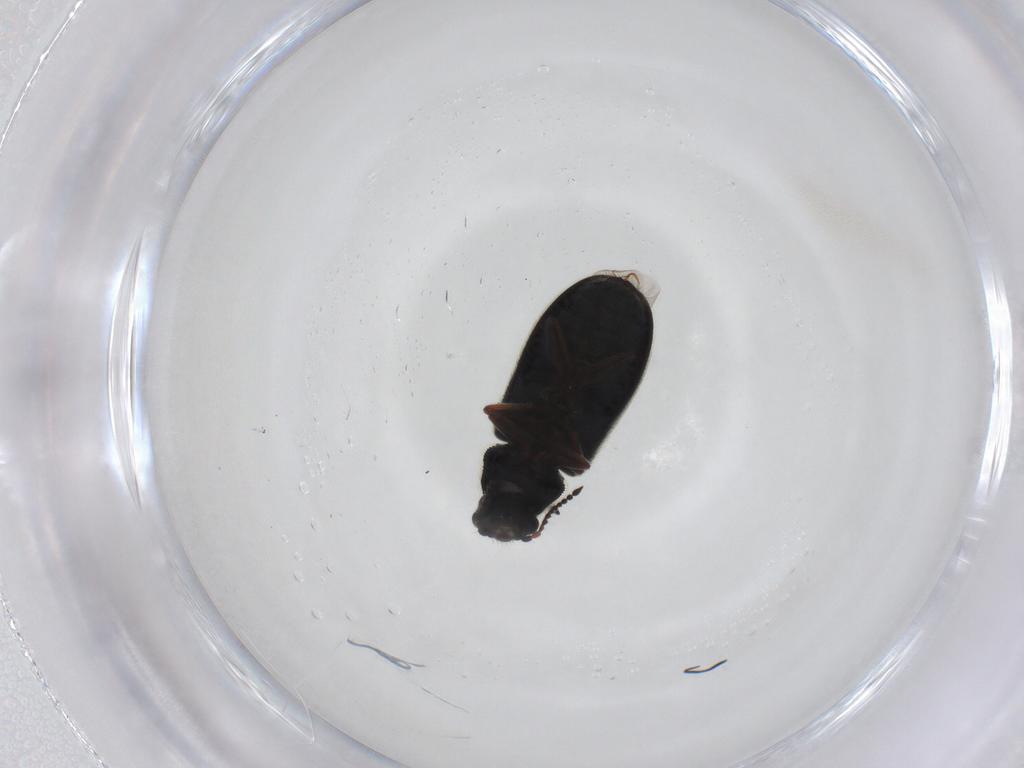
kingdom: Animalia
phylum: Arthropoda
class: Insecta
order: Coleoptera
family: Melyridae
